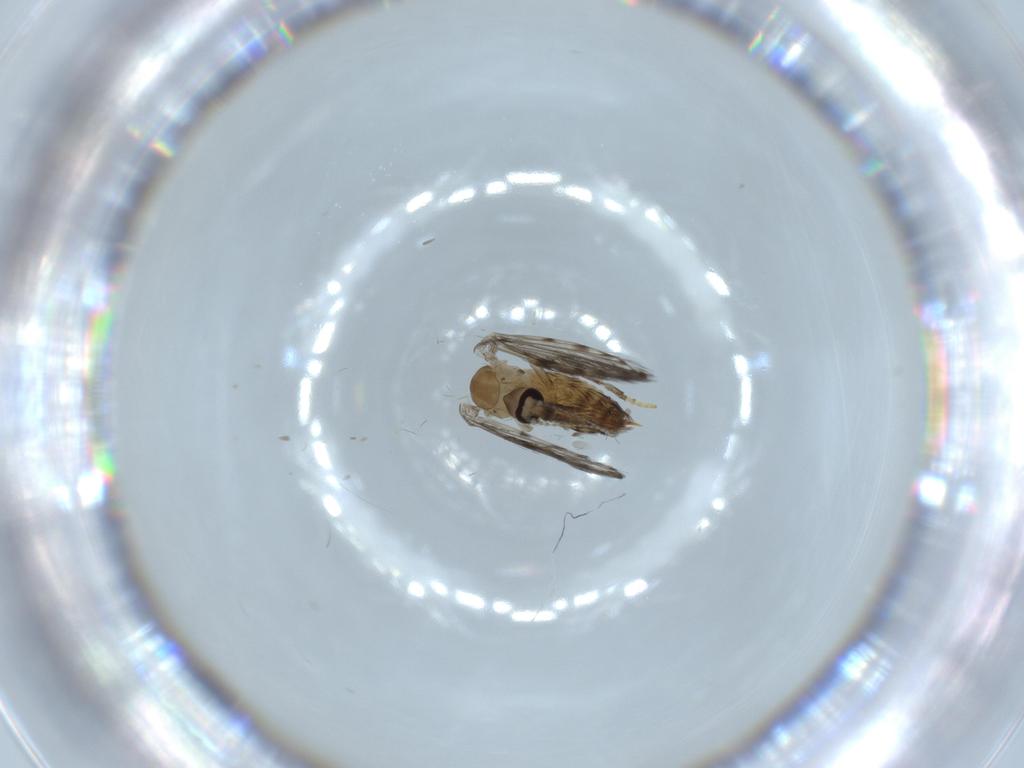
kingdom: Animalia
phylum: Arthropoda
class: Insecta
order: Diptera
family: Psychodidae
